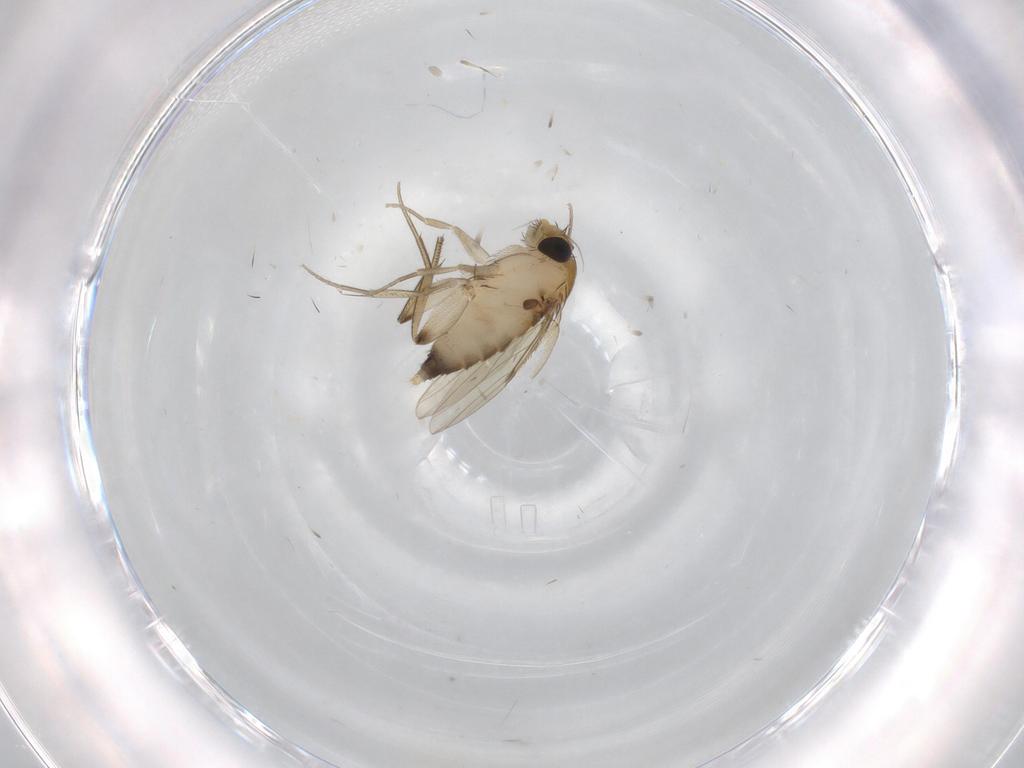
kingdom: Animalia
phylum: Arthropoda
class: Insecta
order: Diptera
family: Phoridae
